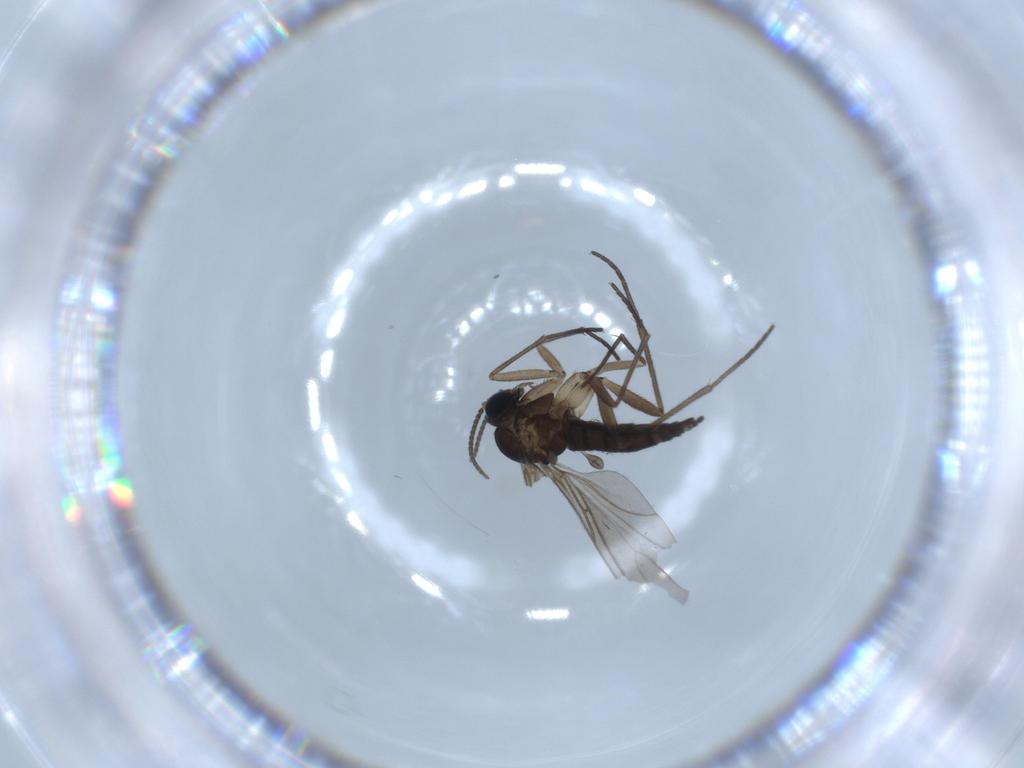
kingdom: Animalia
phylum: Arthropoda
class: Insecta
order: Diptera
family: Sciaridae
